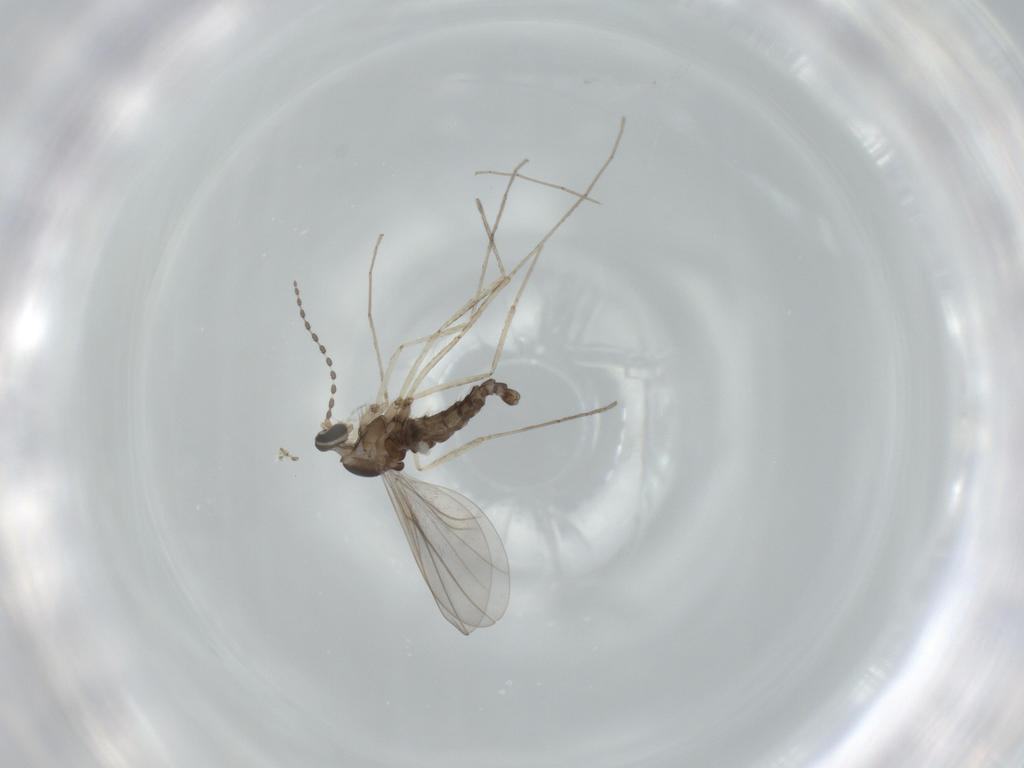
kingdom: Animalia
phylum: Arthropoda
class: Insecta
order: Diptera
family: Cecidomyiidae
